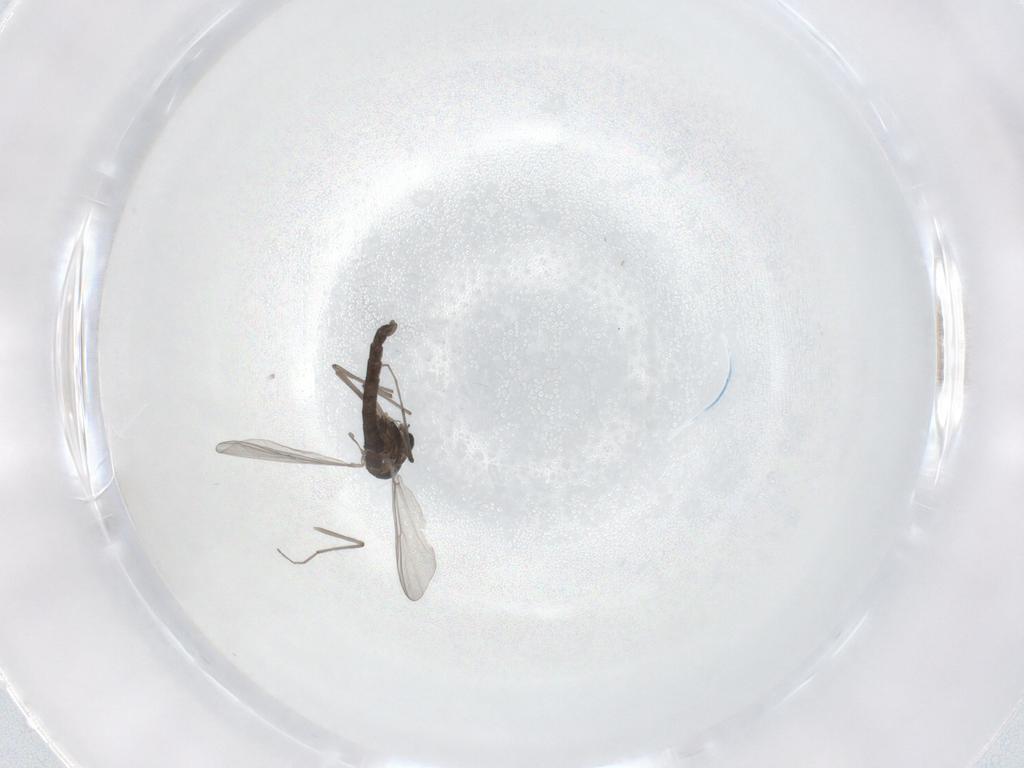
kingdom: Animalia
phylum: Arthropoda
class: Insecta
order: Diptera
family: Chironomidae
